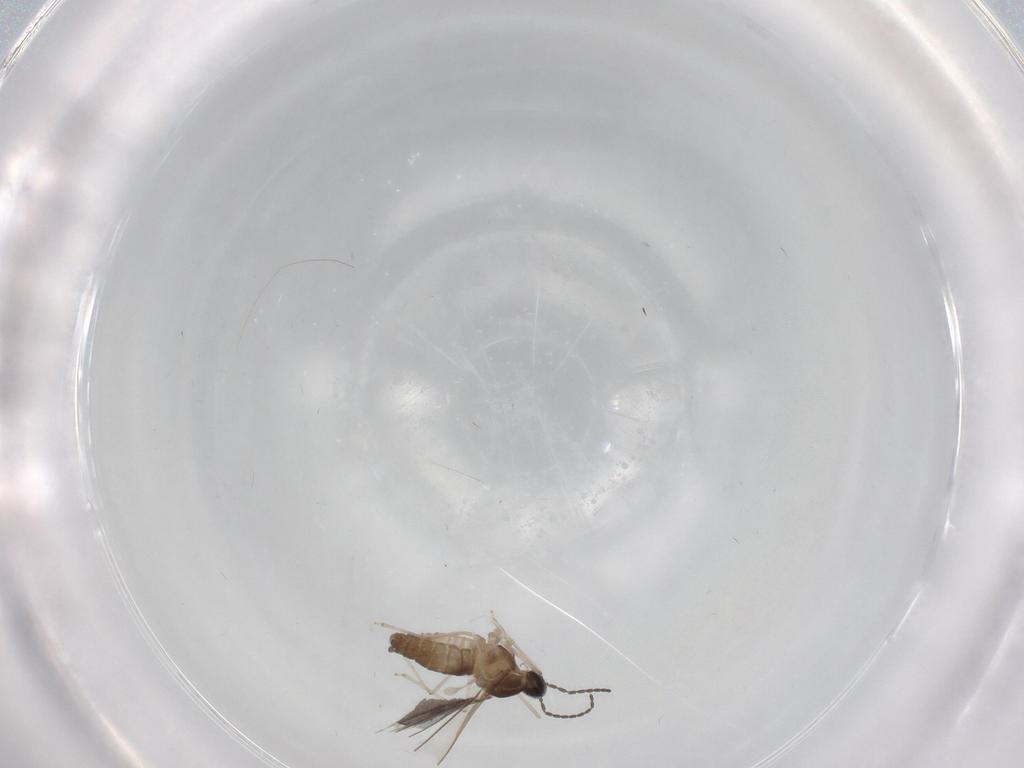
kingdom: Animalia
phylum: Arthropoda
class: Insecta
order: Diptera
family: Cecidomyiidae
